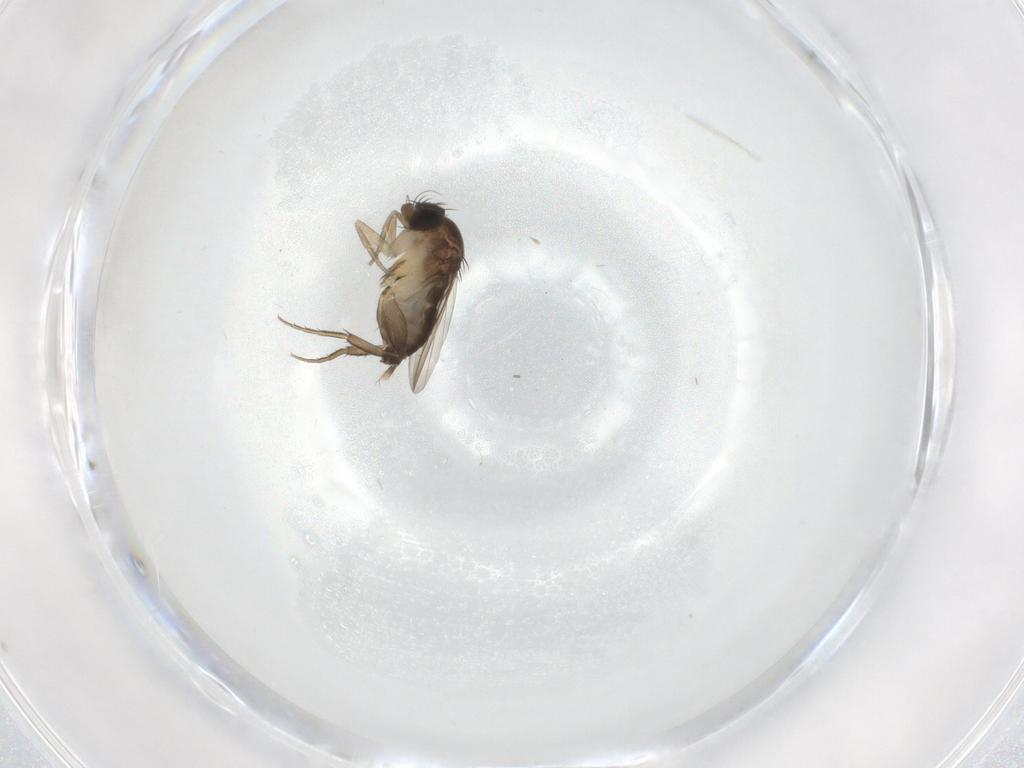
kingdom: Animalia
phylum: Arthropoda
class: Insecta
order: Diptera
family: Phoridae
